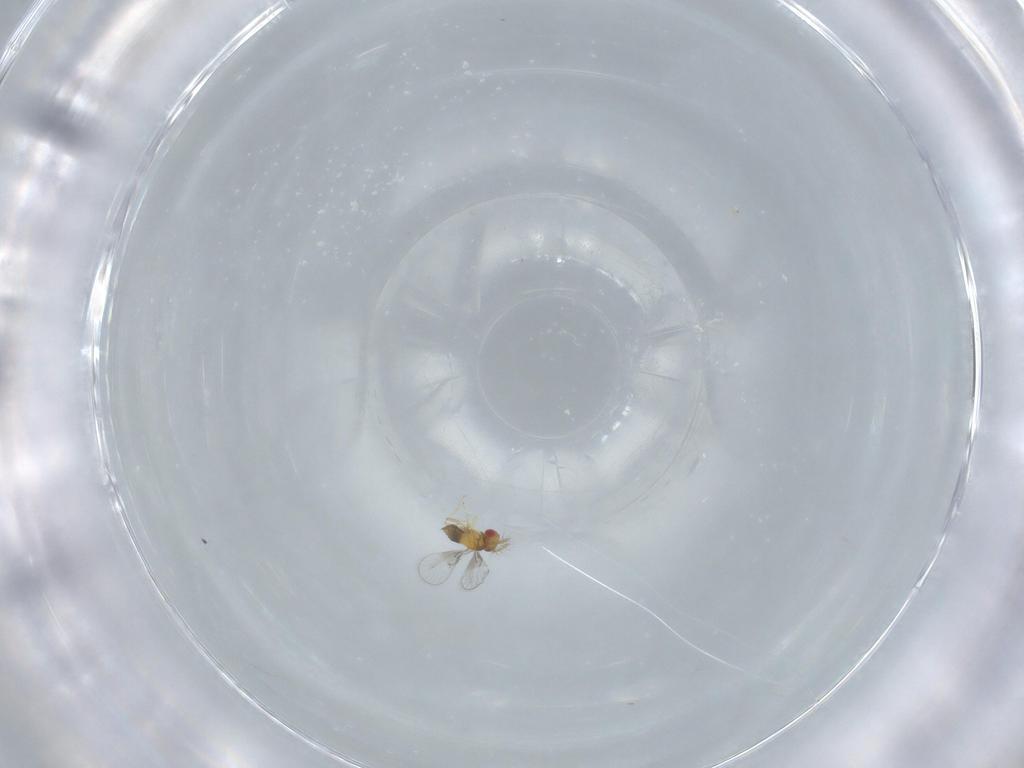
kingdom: Animalia
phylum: Arthropoda
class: Insecta
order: Hymenoptera
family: Trichogrammatidae
